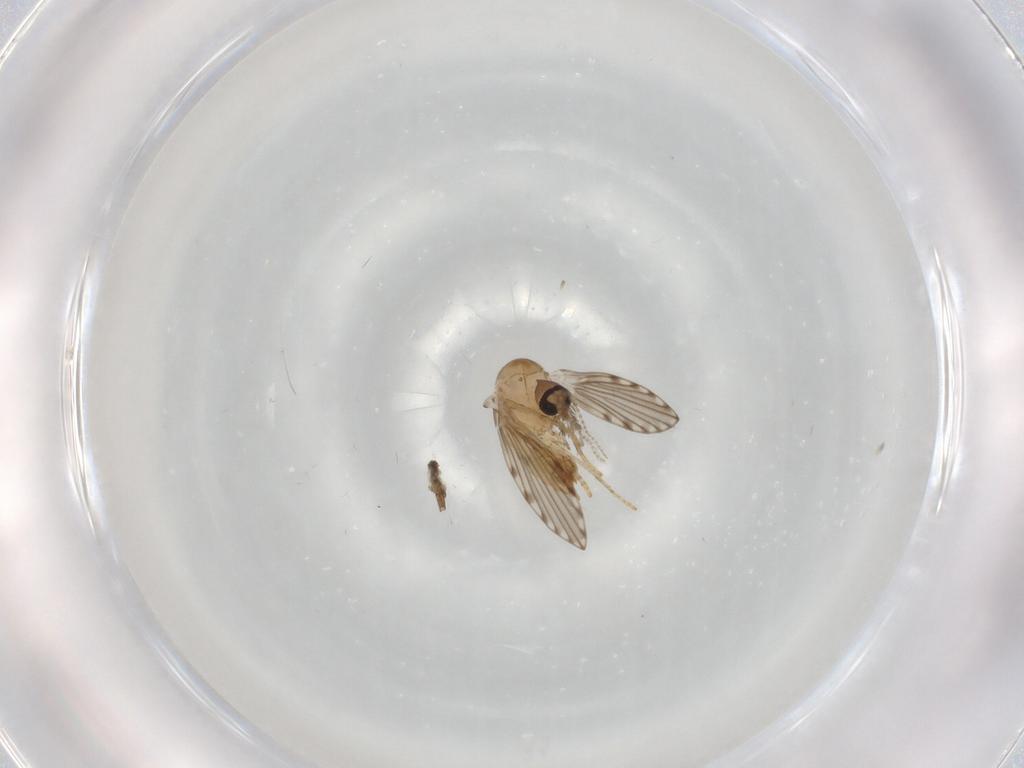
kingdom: Animalia
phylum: Arthropoda
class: Insecta
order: Diptera
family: Psychodidae
